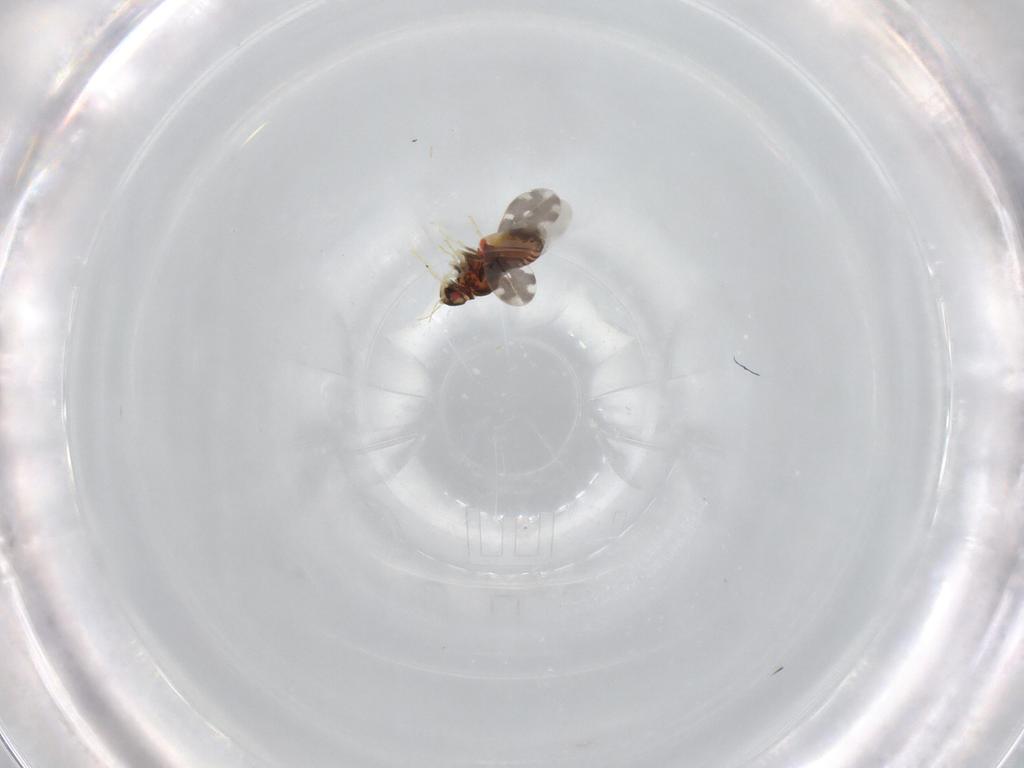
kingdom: Animalia
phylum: Arthropoda
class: Insecta
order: Hemiptera
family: Aleyrodidae
